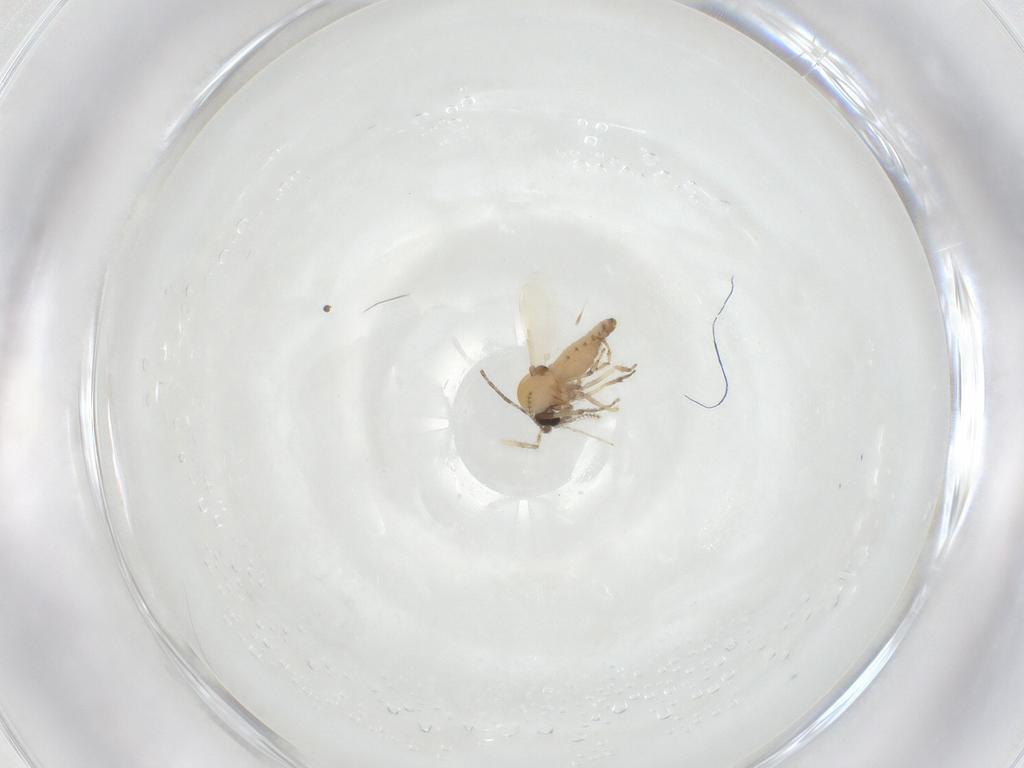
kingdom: Animalia
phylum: Arthropoda
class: Insecta
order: Diptera
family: Ceratopogonidae
